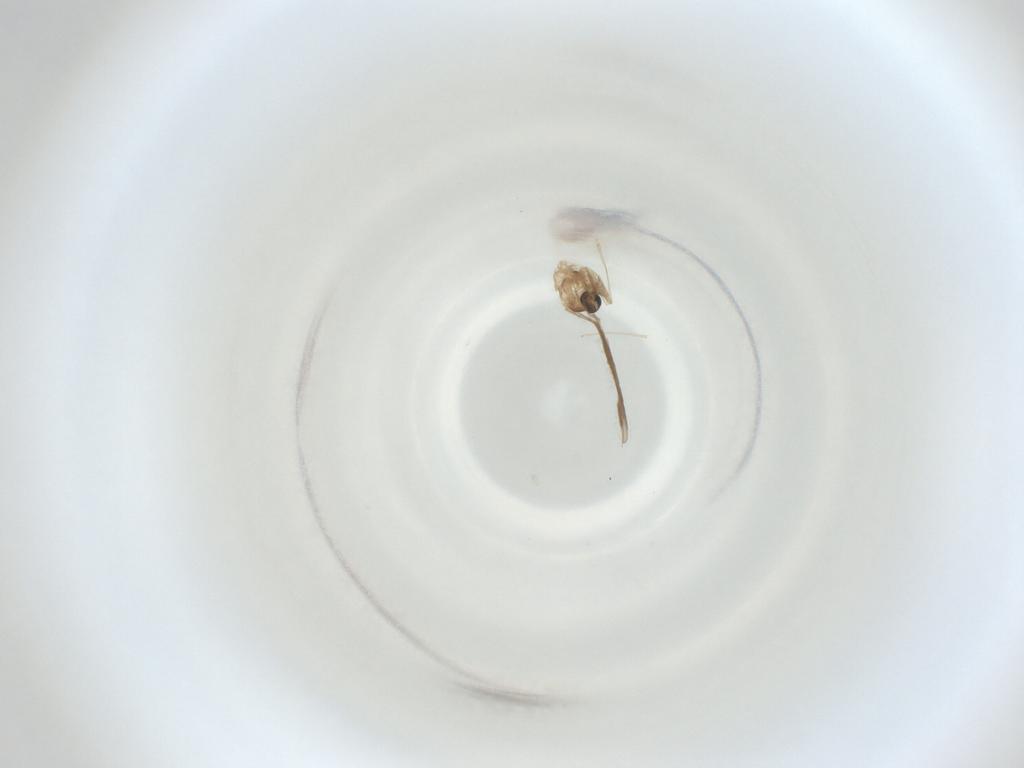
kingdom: Animalia
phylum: Arthropoda
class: Insecta
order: Diptera
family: Cecidomyiidae
